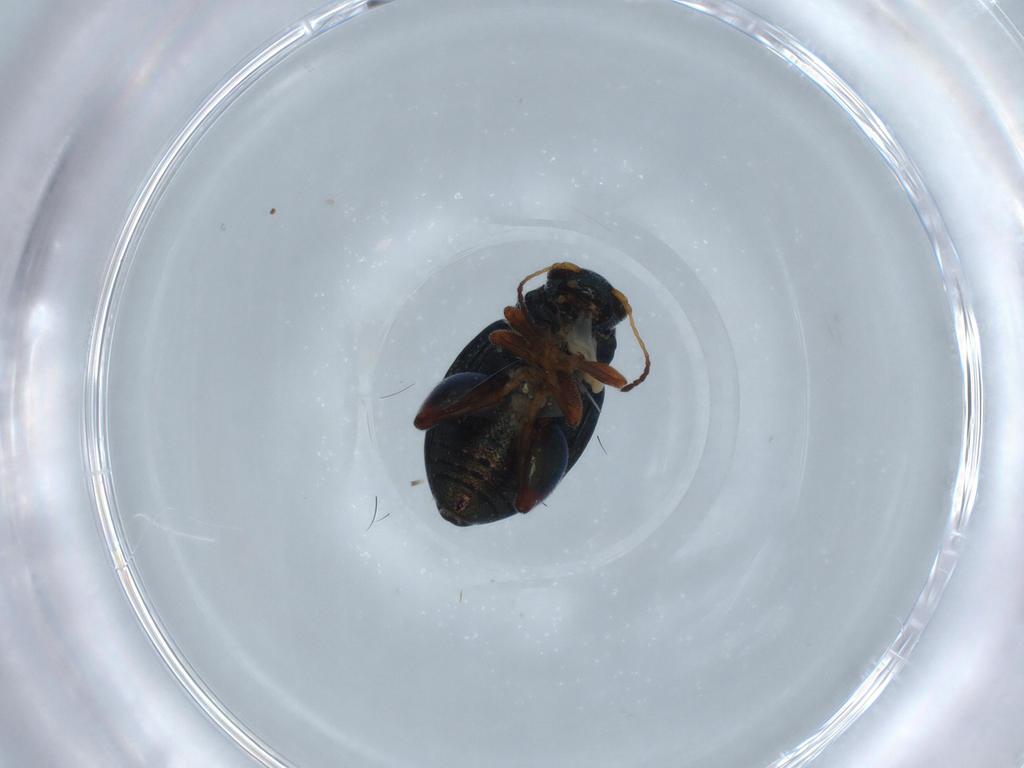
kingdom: Animalia
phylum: Arthropoda
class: Insecta
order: Coleoptera
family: Chrysomelidae
